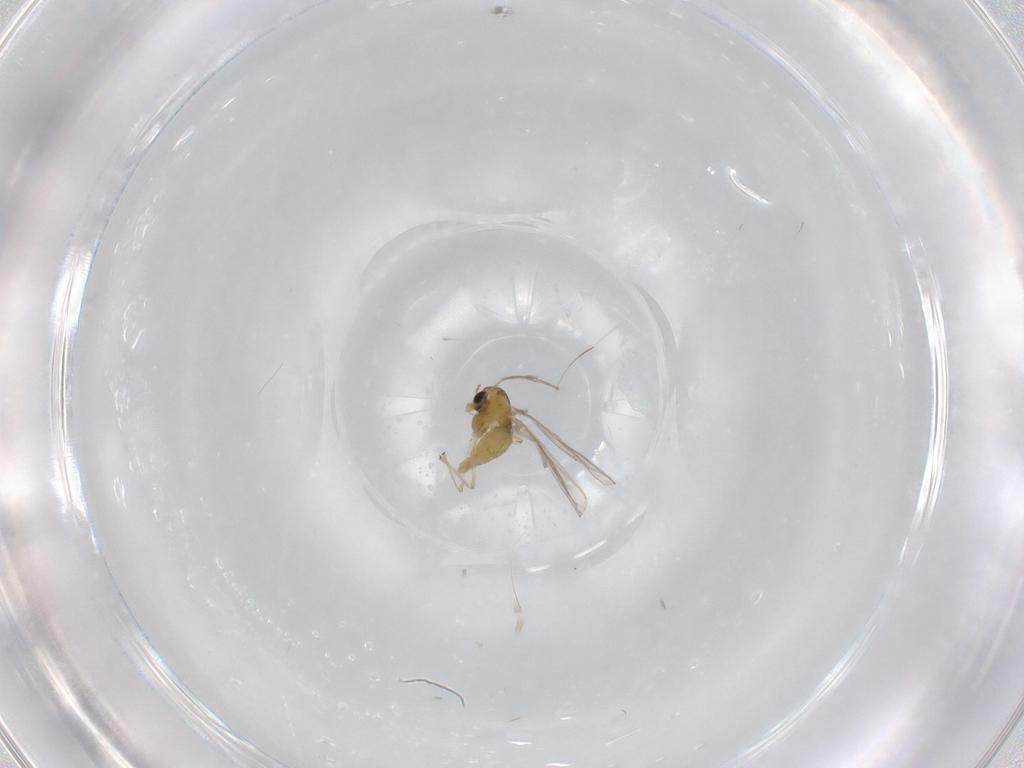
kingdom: Animalia
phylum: Arthropoda
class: Insecta
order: Diptera
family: Chironomidae
